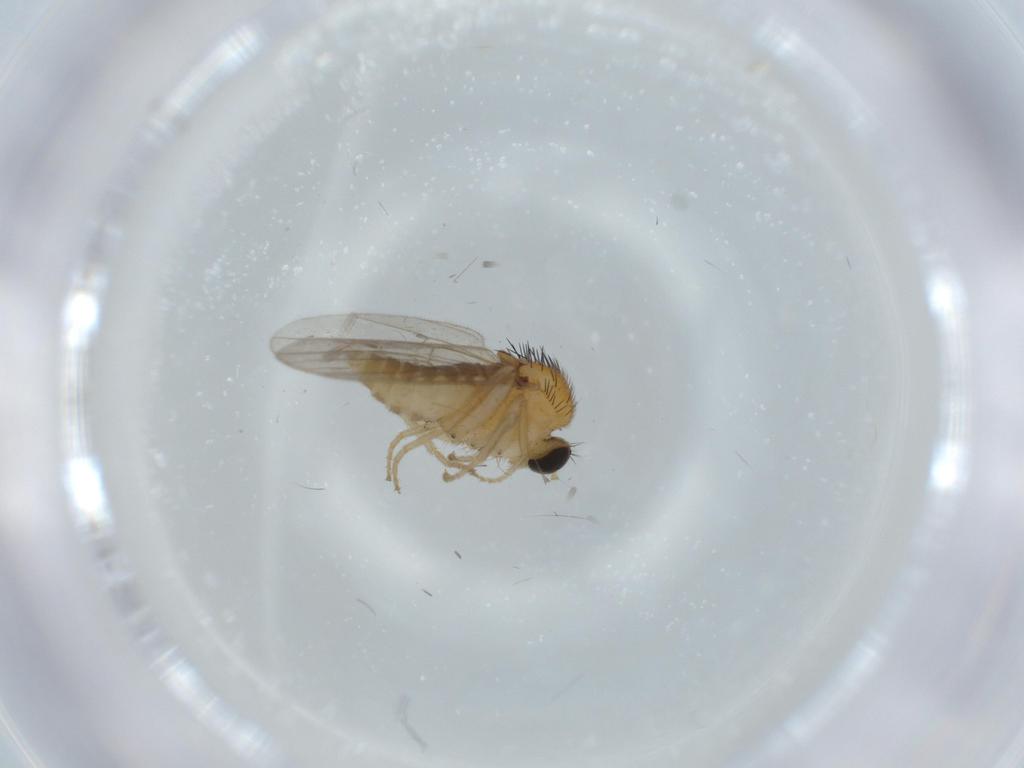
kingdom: Animalia
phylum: Arthropoda
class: Insecta
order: Diptera
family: Hybotidae
